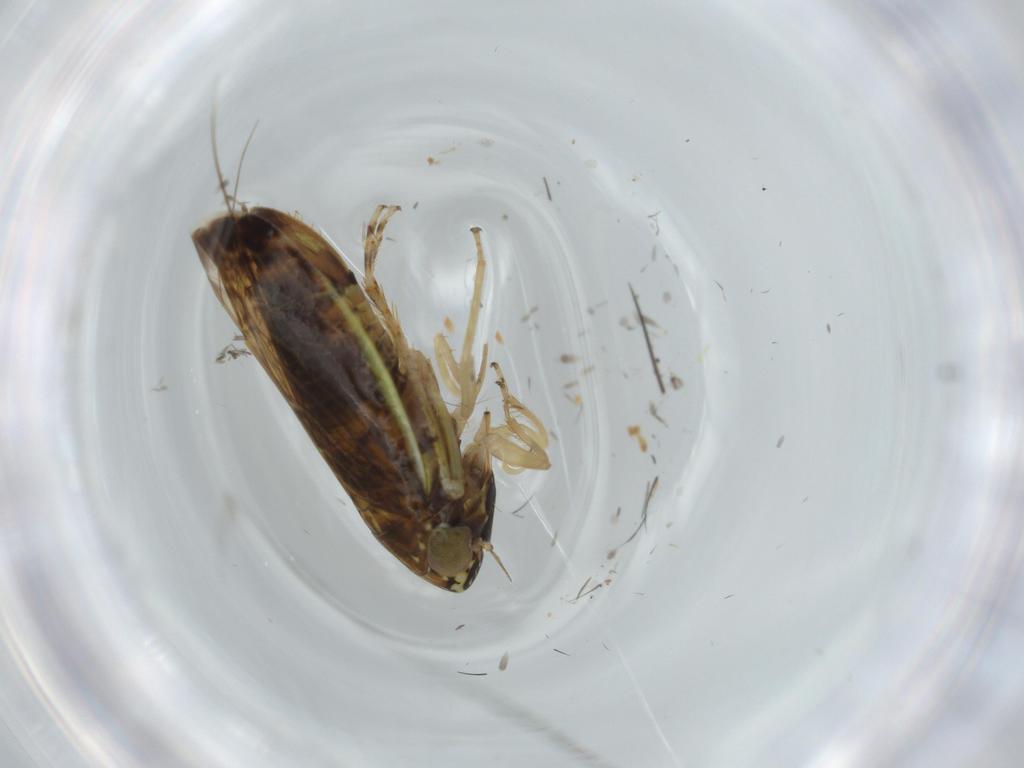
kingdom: Animalia
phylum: Arthropoda
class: Insecta
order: Hemiptera
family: Cicadellidae
